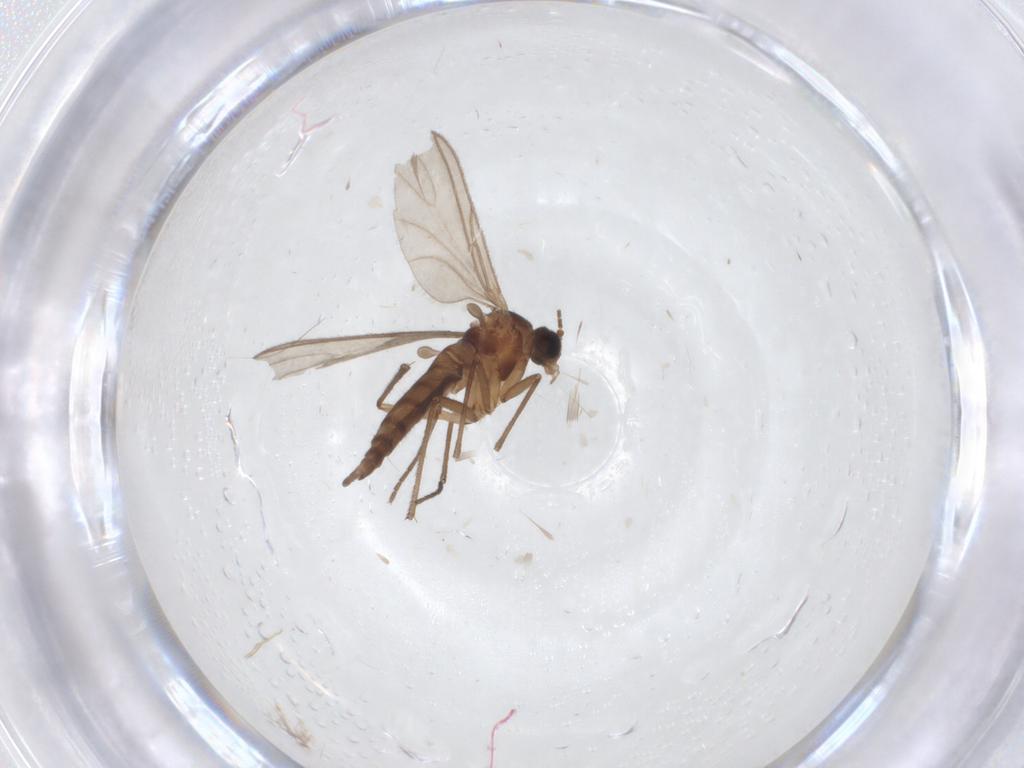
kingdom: Animalia
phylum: Arthropoda
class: Insecta
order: Diptera
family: Sciaridae
